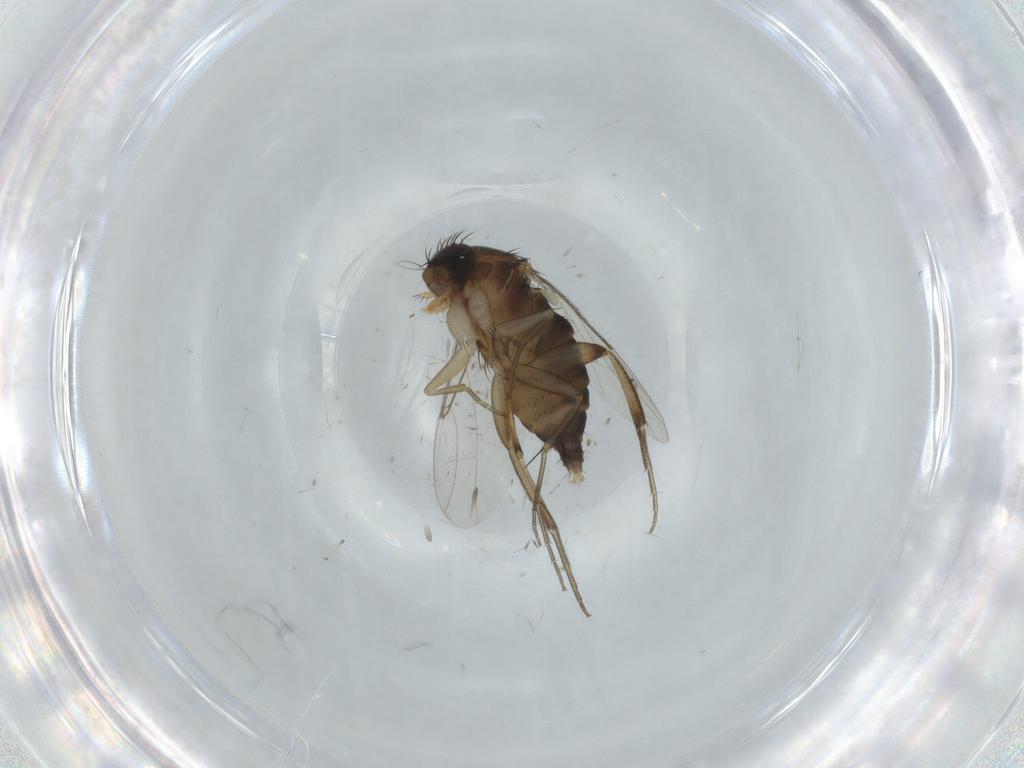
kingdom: Animalia
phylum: Arthropoda
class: Insecta
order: Diptera
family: Phoridae
